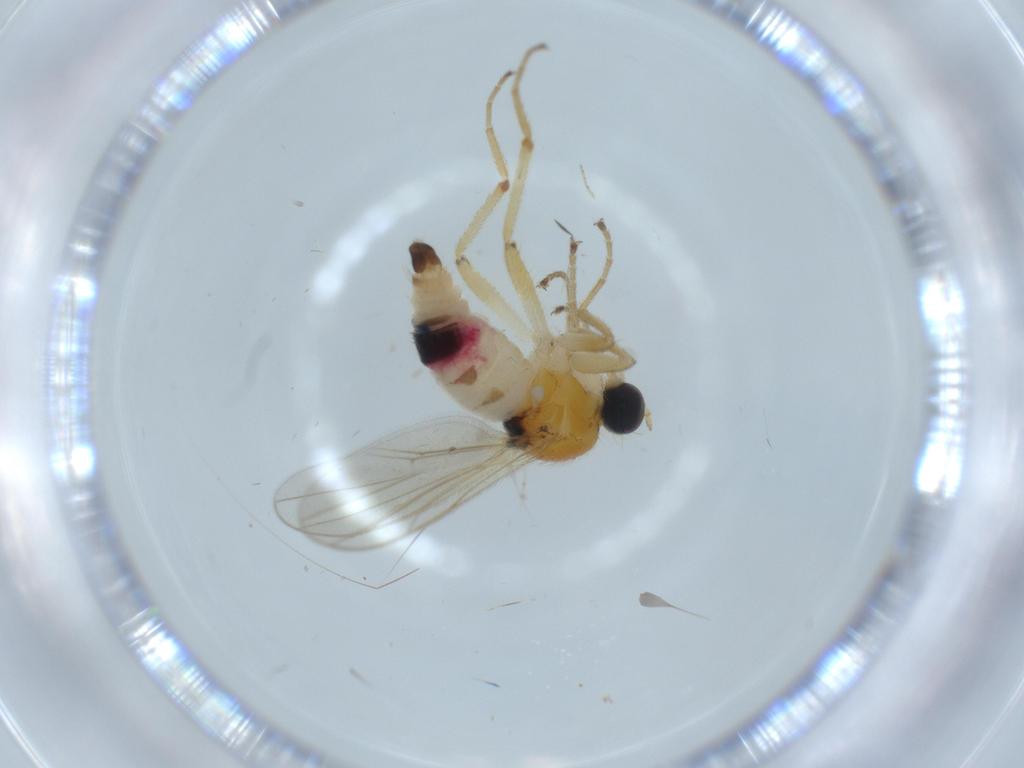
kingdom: Animalia
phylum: Arthropoda
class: Insecta
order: Diptera
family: Hybotidae
